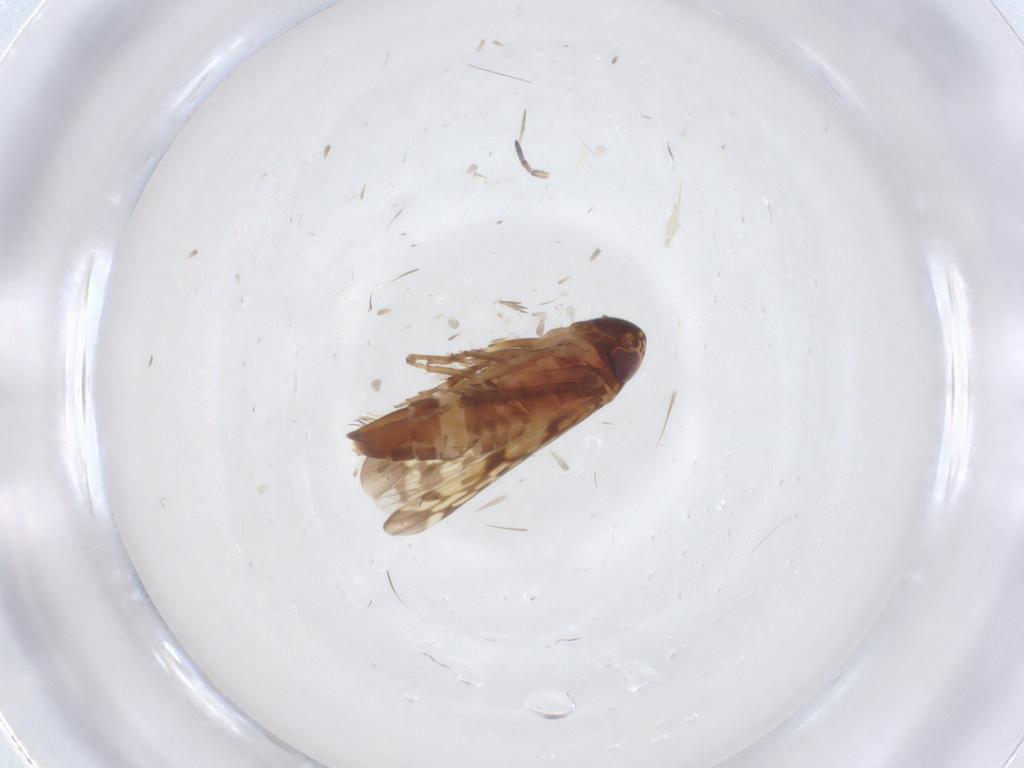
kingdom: Animalia
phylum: Arthropoda
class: Insecta
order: Hemiptera
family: Cicadellidae
